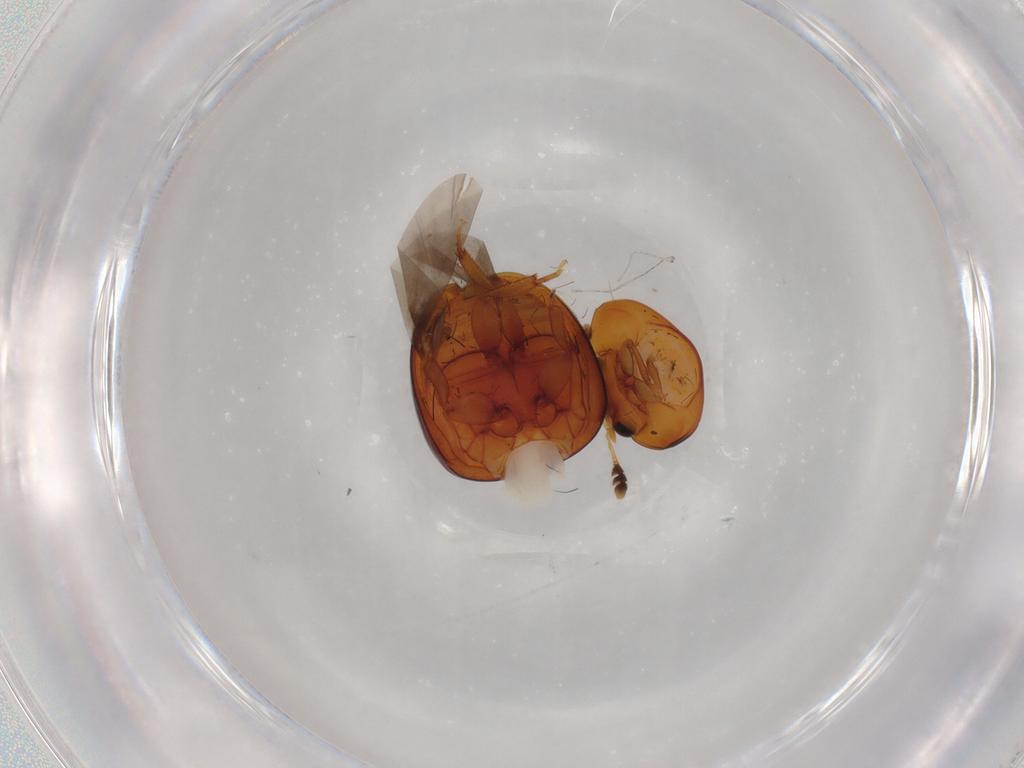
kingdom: Animalia
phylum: Arthropoda
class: Insecta
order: Coleoptera
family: Phalacridae
